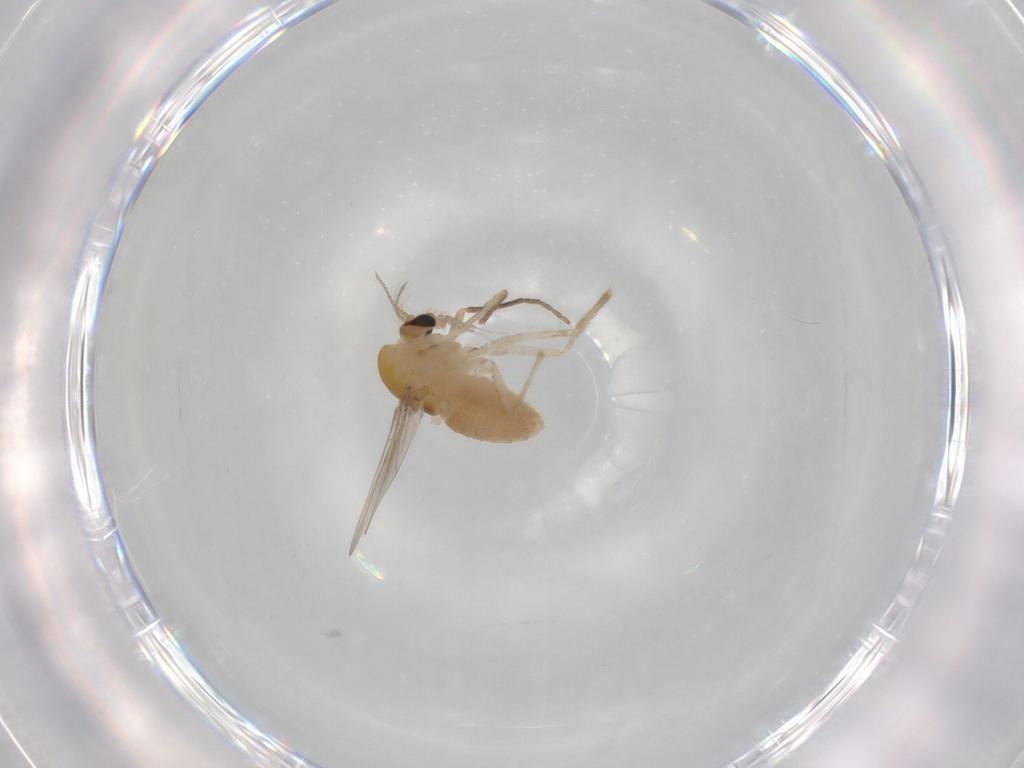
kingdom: Animalia
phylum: Arthropoda
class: Insecta
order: Diptera
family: Chironomidae
